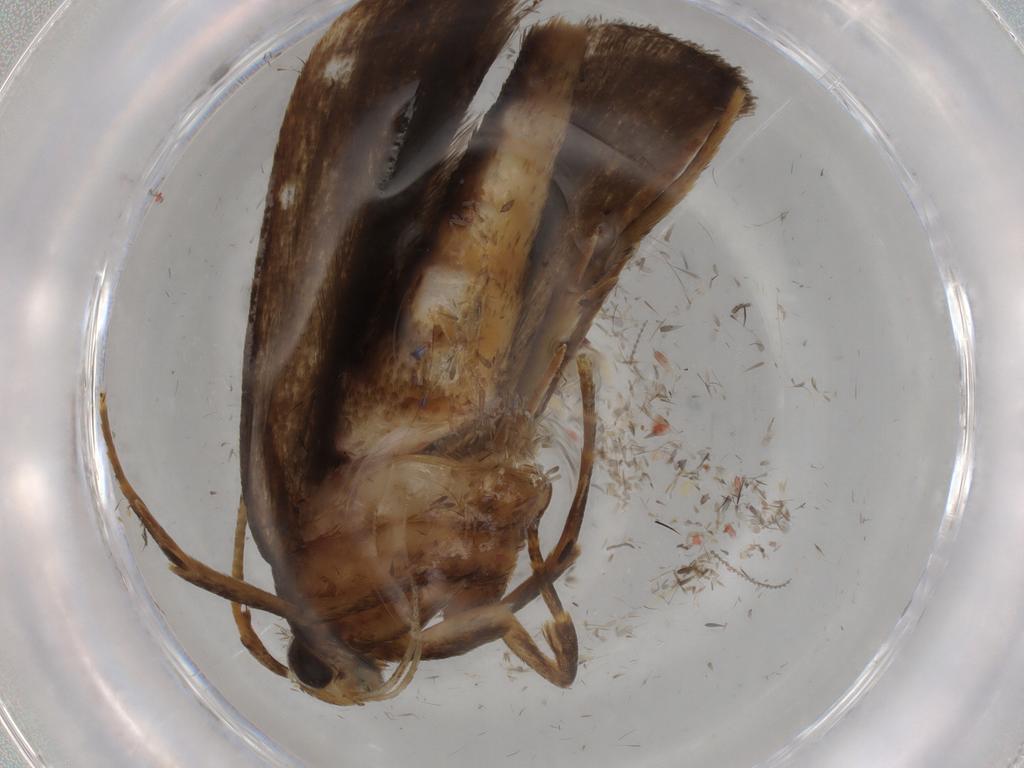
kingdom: Animalia
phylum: Arthropoda
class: Insecta
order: Lepidoptera
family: Autostichidae
